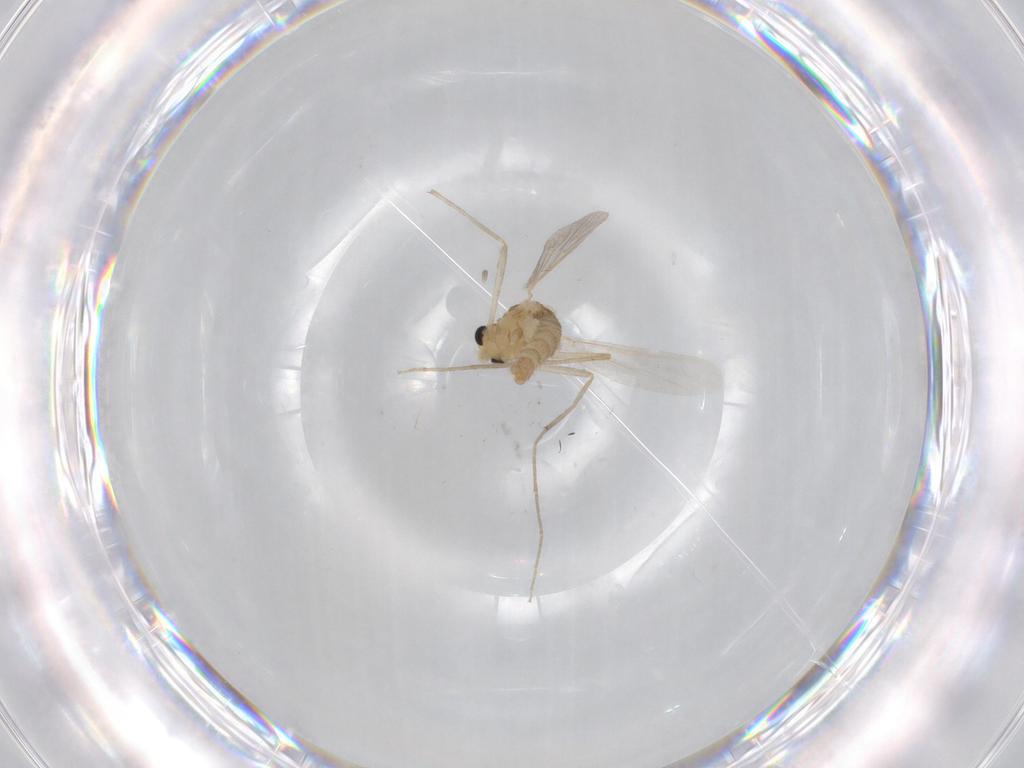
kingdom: Animalia
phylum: Arthropoda
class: Insecta
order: Diptera
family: Chironomidae
